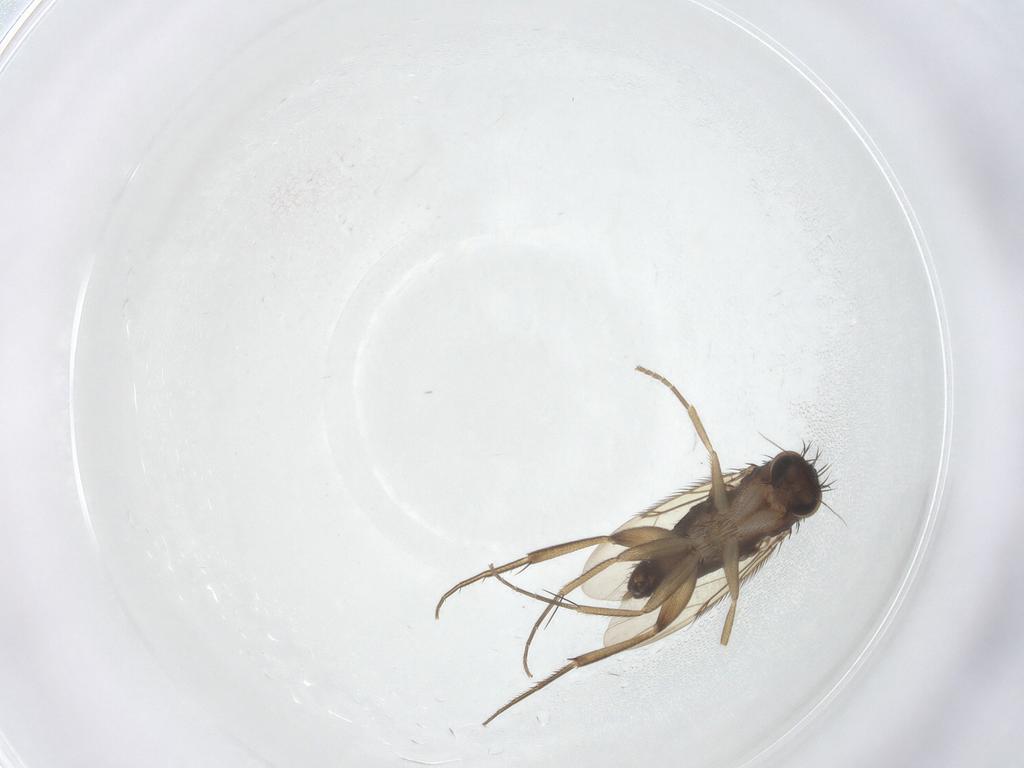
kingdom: Animalia
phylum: Arthropoda
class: Insecta
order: Diptera
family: Phoridae
